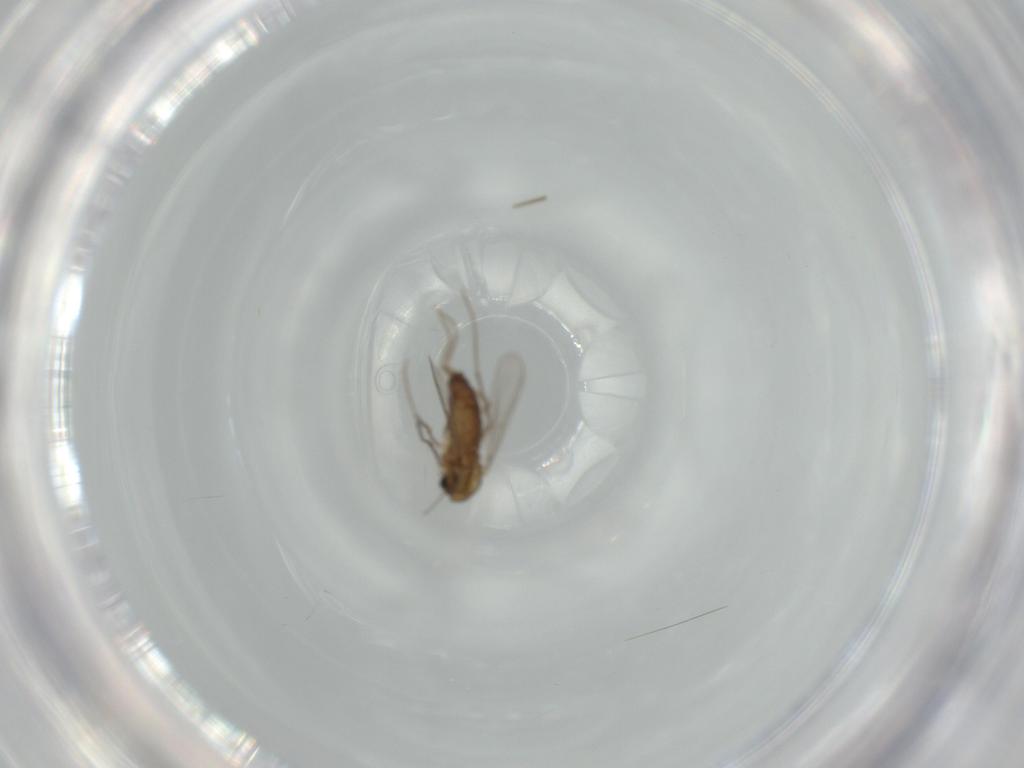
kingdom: Animalia
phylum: Arthropoda
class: Insecta
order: Diptera
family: Chironomidae
